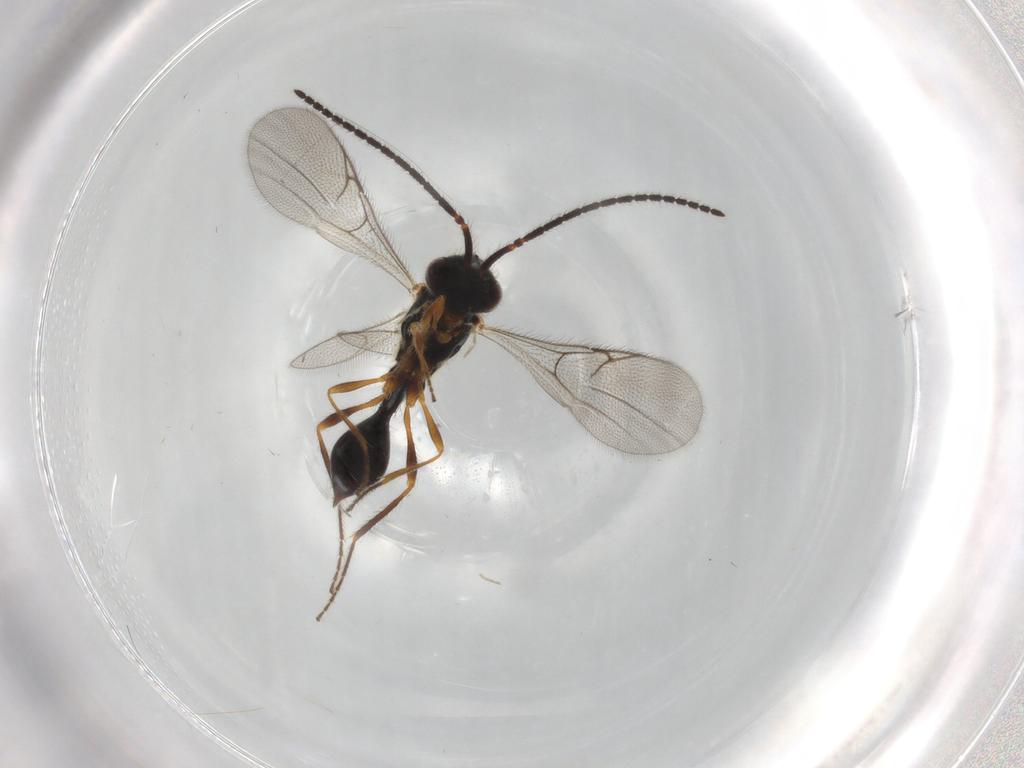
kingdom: Animalia
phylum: Arthropoda
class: Insecta
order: Hymenoptera
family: Diapriidae
